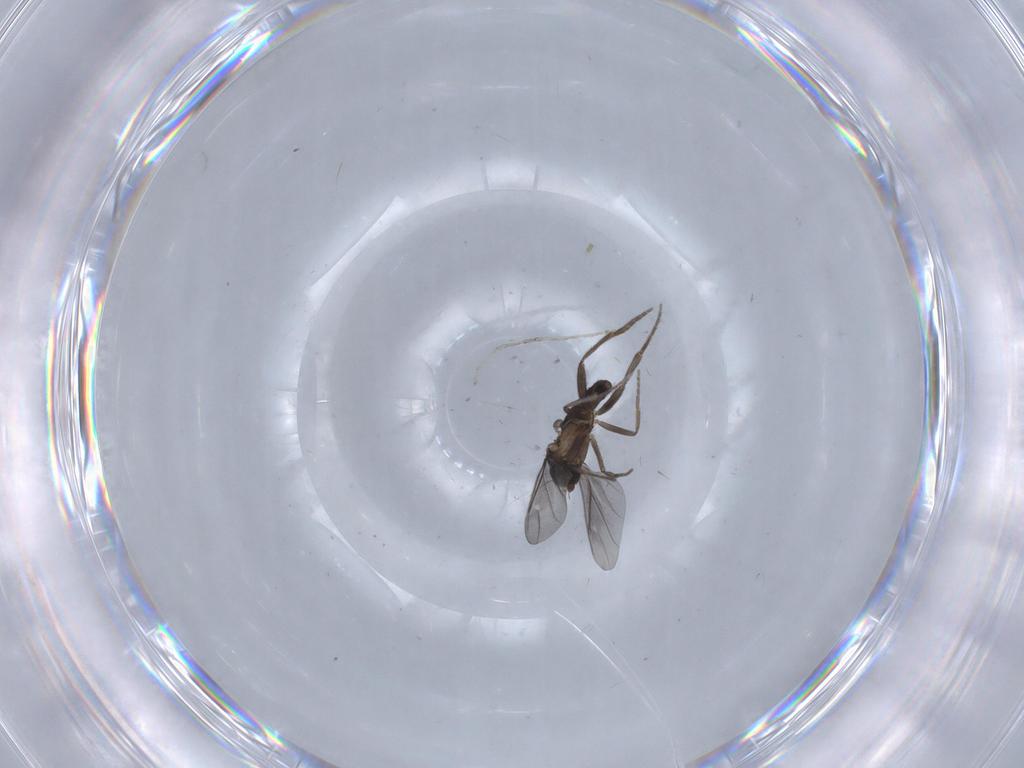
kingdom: Animalia
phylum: Arthropoda
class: Insecta
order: Diptera
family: Phoridae
